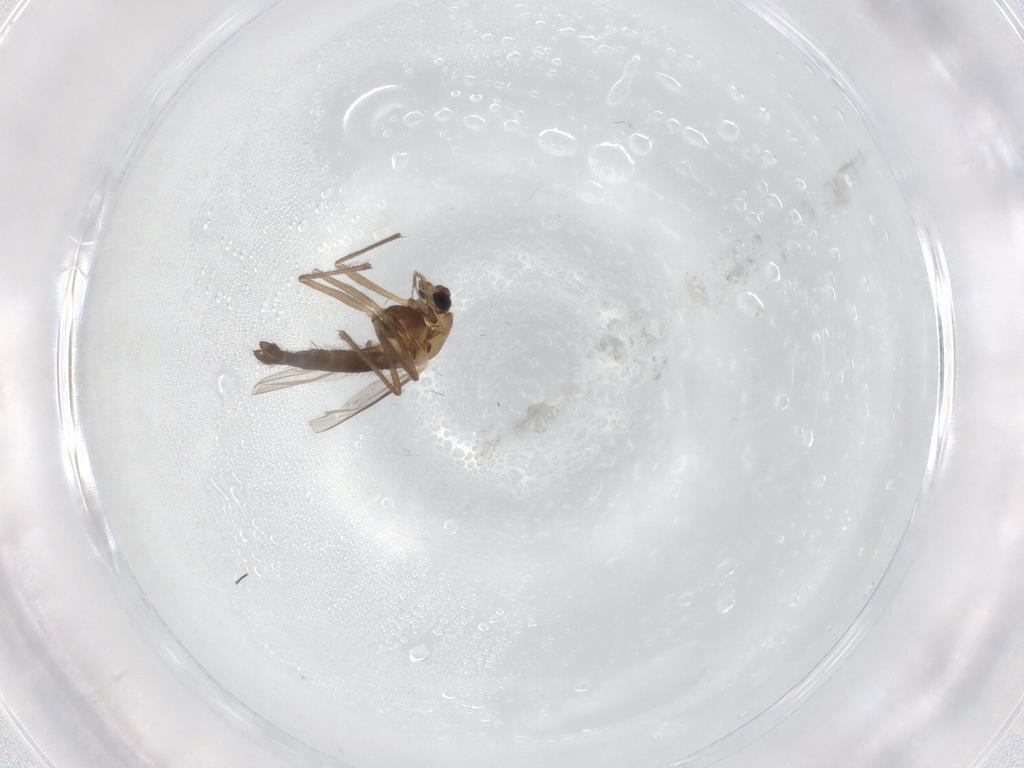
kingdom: Animalia
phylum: Arthropoda
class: Insecta
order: Diptera
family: Chironomidae
